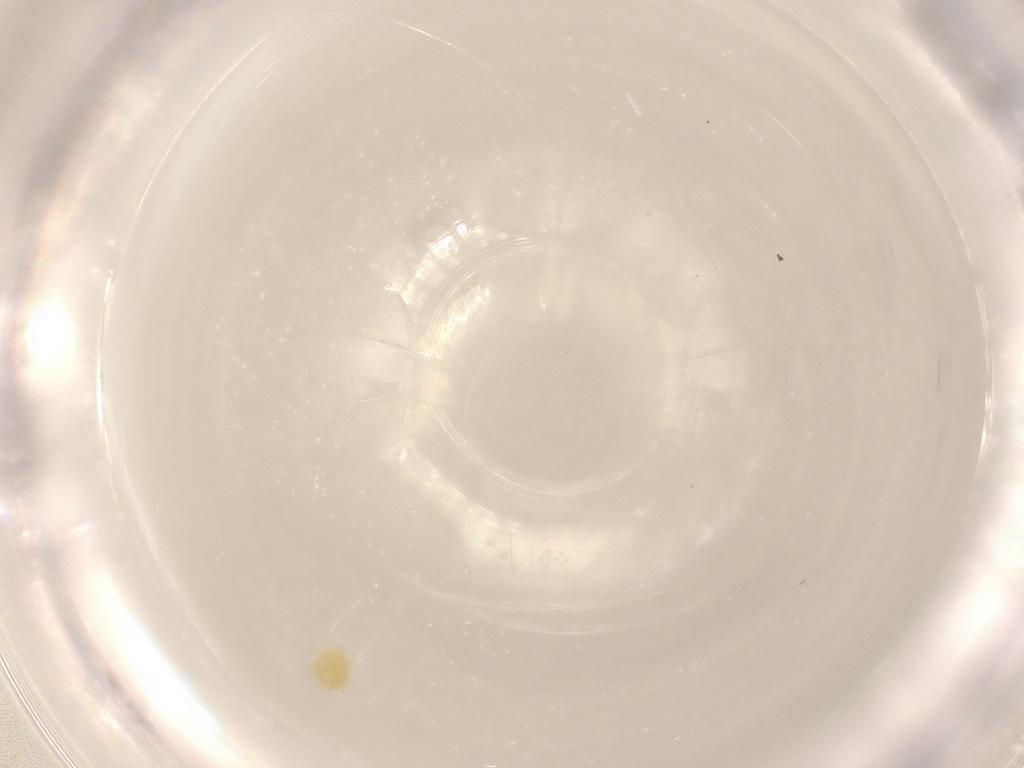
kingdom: Animalia
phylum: Arthropoda
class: Arachnida
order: Trombidiformes
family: Tetranychidae
